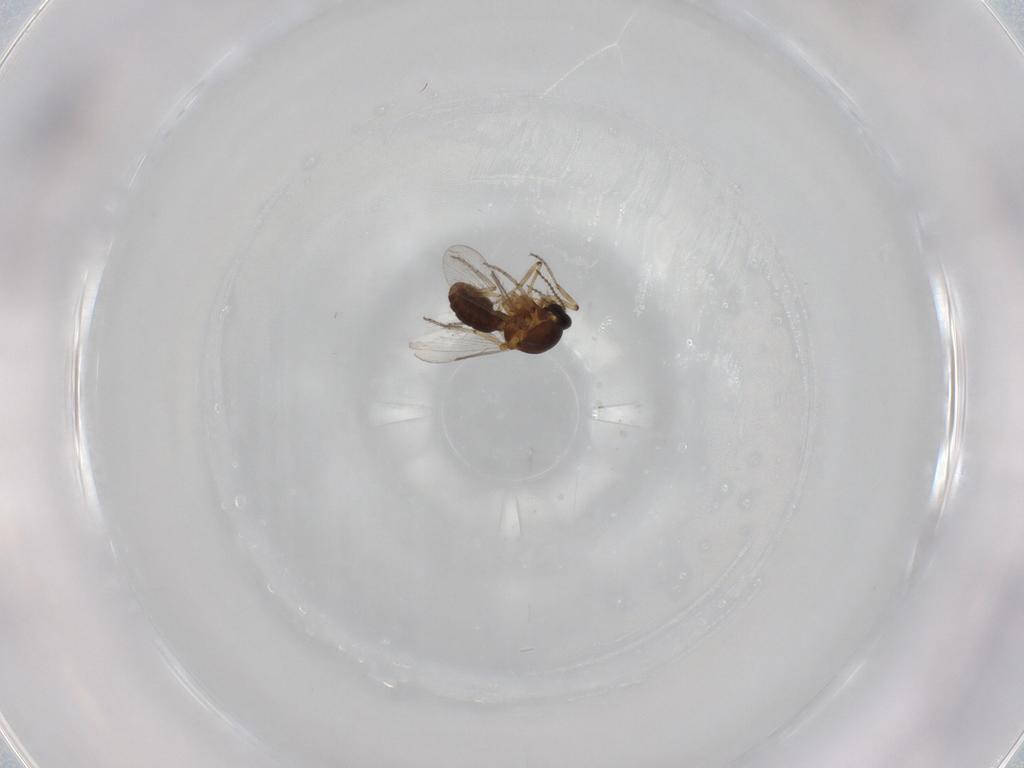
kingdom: Animalia
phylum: Arthropoda
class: Insecta
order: Diptera
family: Ceratopogonidae
